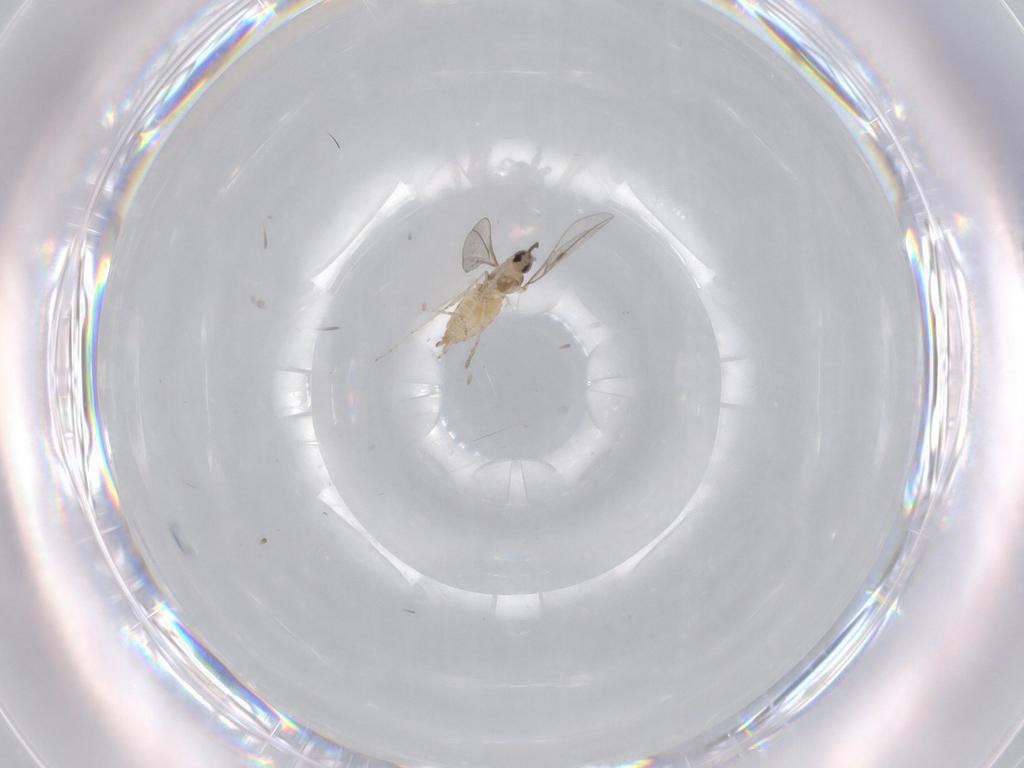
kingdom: Animalia
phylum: Arthropoda
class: Insecta
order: Diptera
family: Cecidomyiidae
